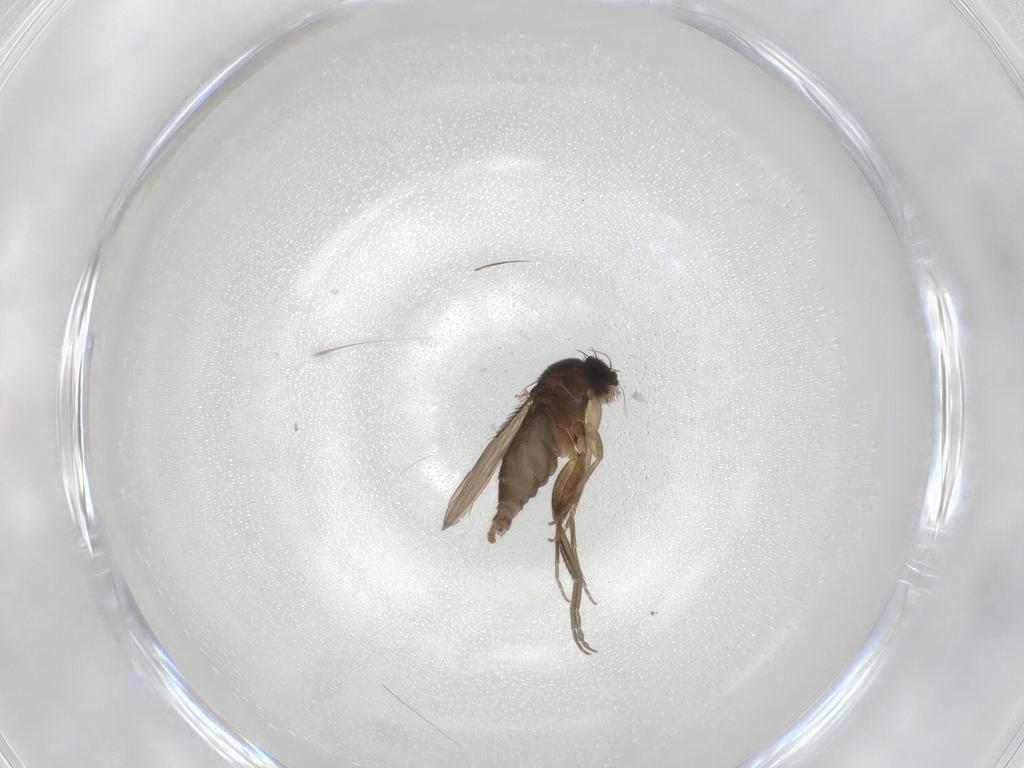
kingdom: Animalia
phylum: Arthropoda
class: Insecta
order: Diptera
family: Phoridae
